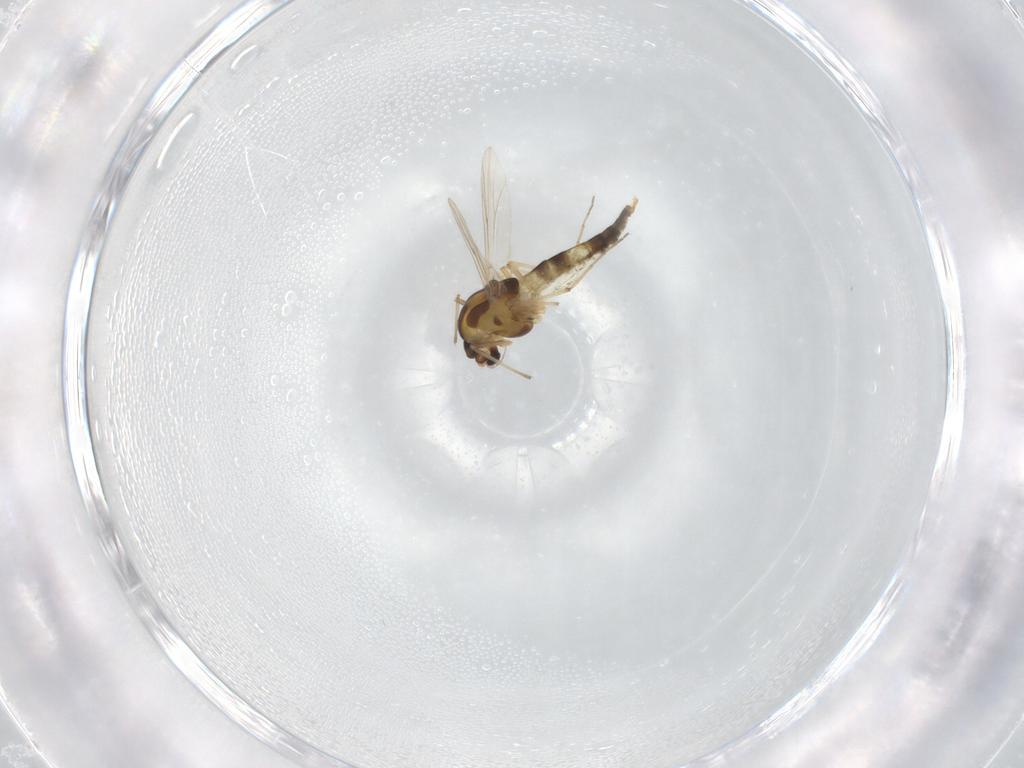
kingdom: Animalia
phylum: Arthropoda
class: Insecta
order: Diptera
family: Chironomidae
